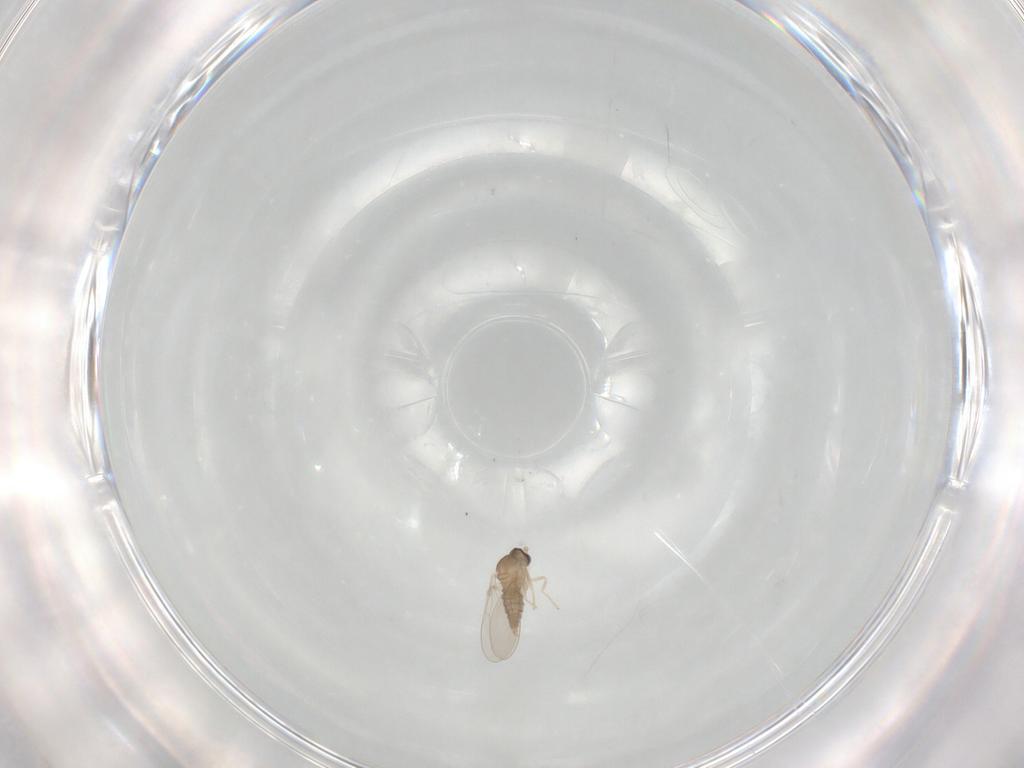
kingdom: Animalia
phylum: Arthropoda
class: Insecta
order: Diptera
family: Cecidomyiidae
